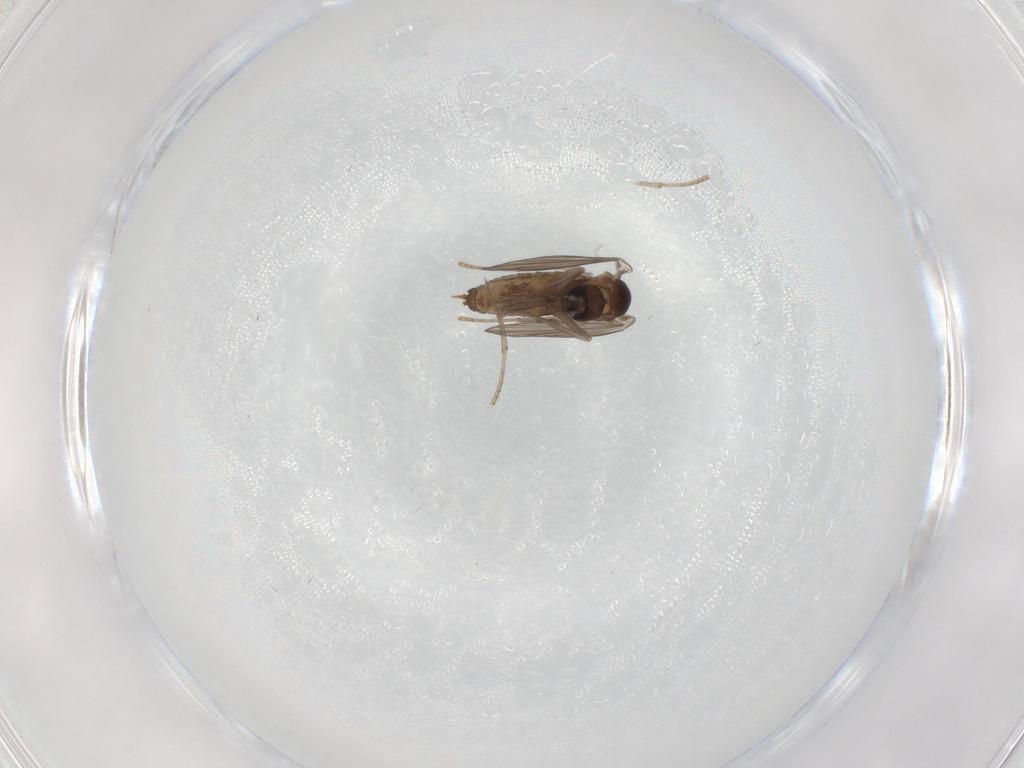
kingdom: Animalia
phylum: Arthropoda
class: Insecta
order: Diptera
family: Psychodidae
